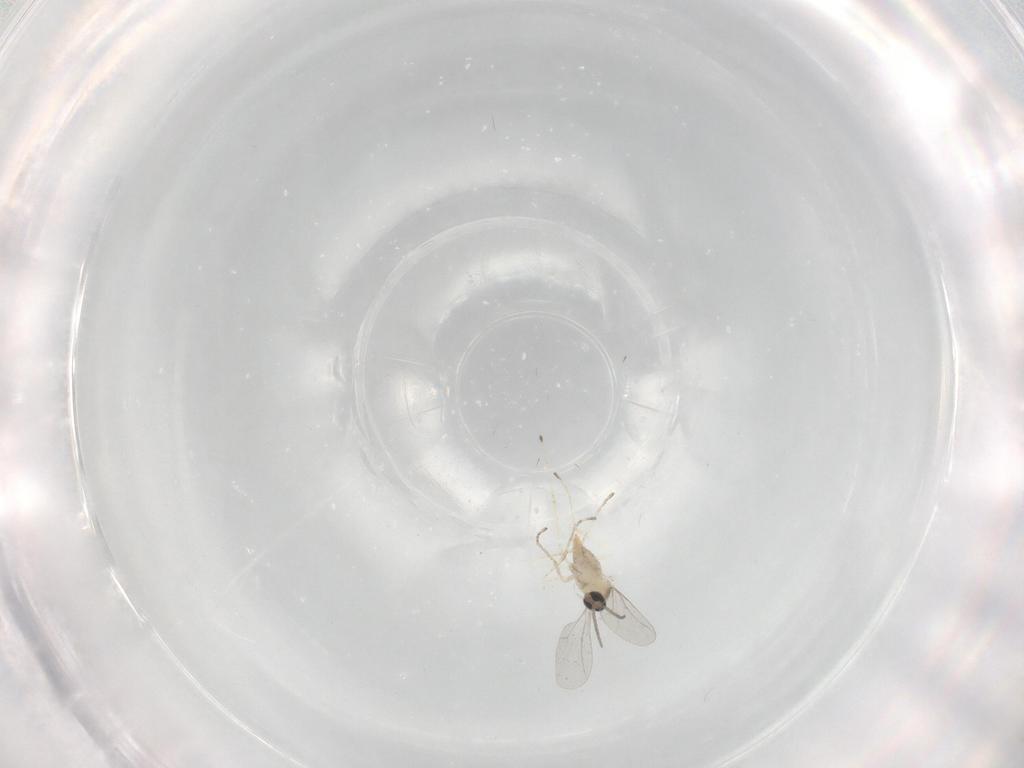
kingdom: Animalia
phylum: Arthropoda
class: Insecta
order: Diptera
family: Cecidomyiidae
